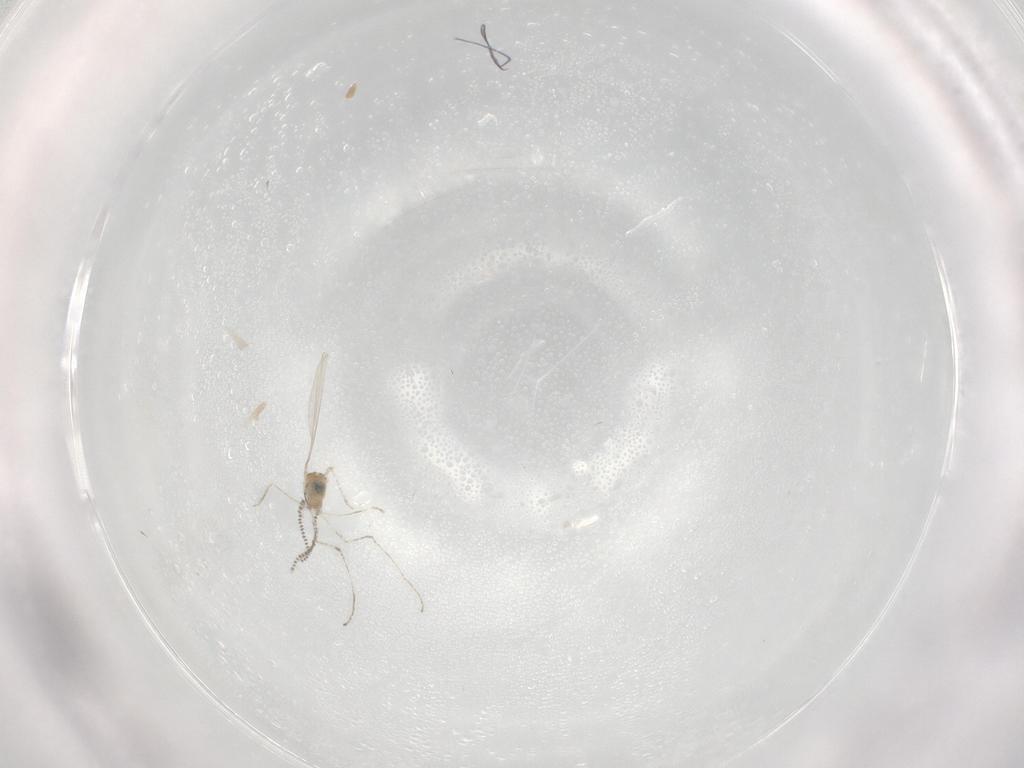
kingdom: Animalia
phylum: Arthropoda
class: Insecta
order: Diptera
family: Cecidomyiidae
